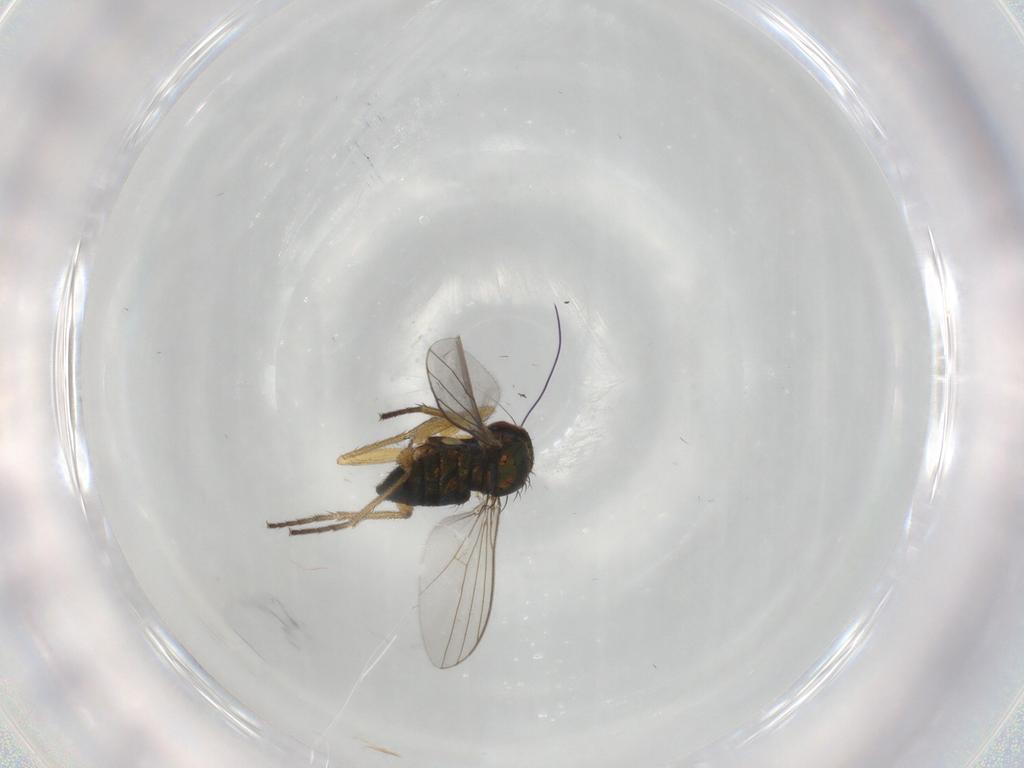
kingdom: Animalia
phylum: Arthropoda
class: Insecta
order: Diptera
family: Dolichopodidae
